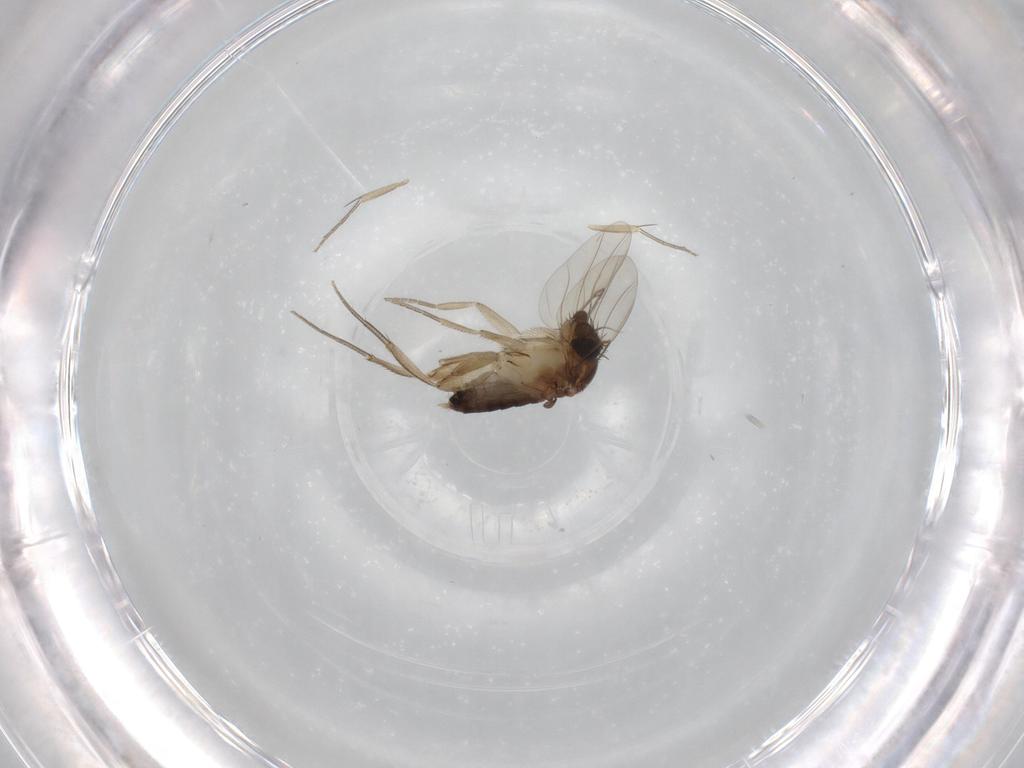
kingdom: Animalia
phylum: Arthropoda
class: Insecta
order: Diptera
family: Phoridae
